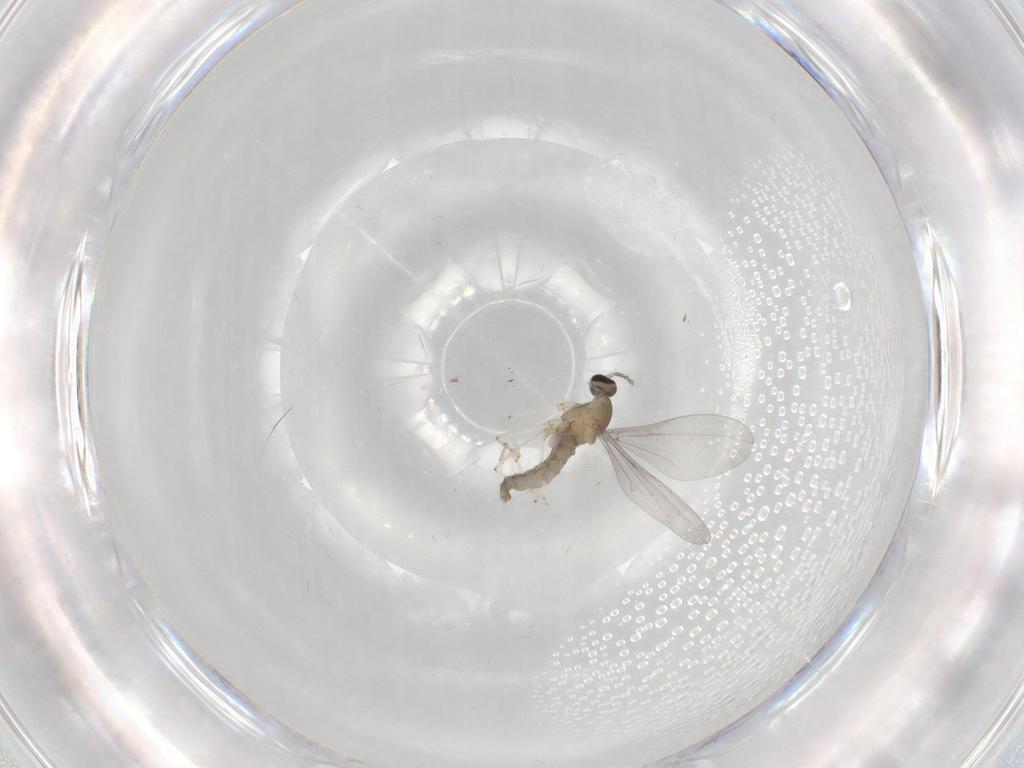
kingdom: Animalia
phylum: Arthropoda
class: Insecta
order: Diptera
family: Cecidomyiidae
